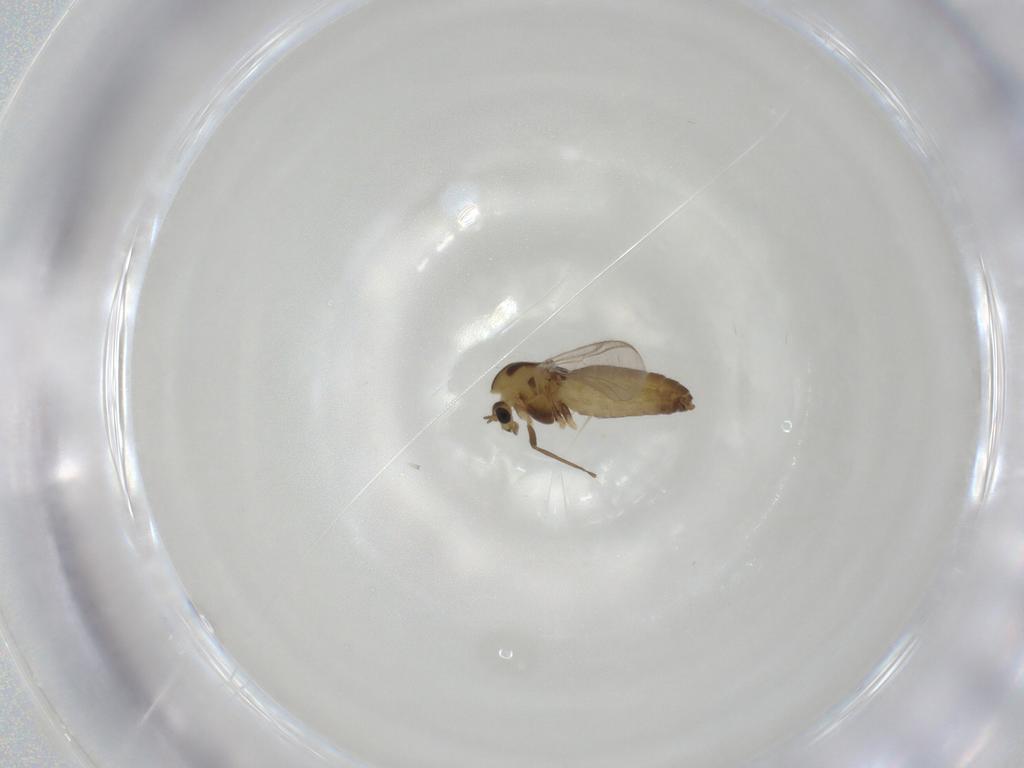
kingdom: Animalia
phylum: Arthropoda
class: Insecta
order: Diptera
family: Chironomidae
